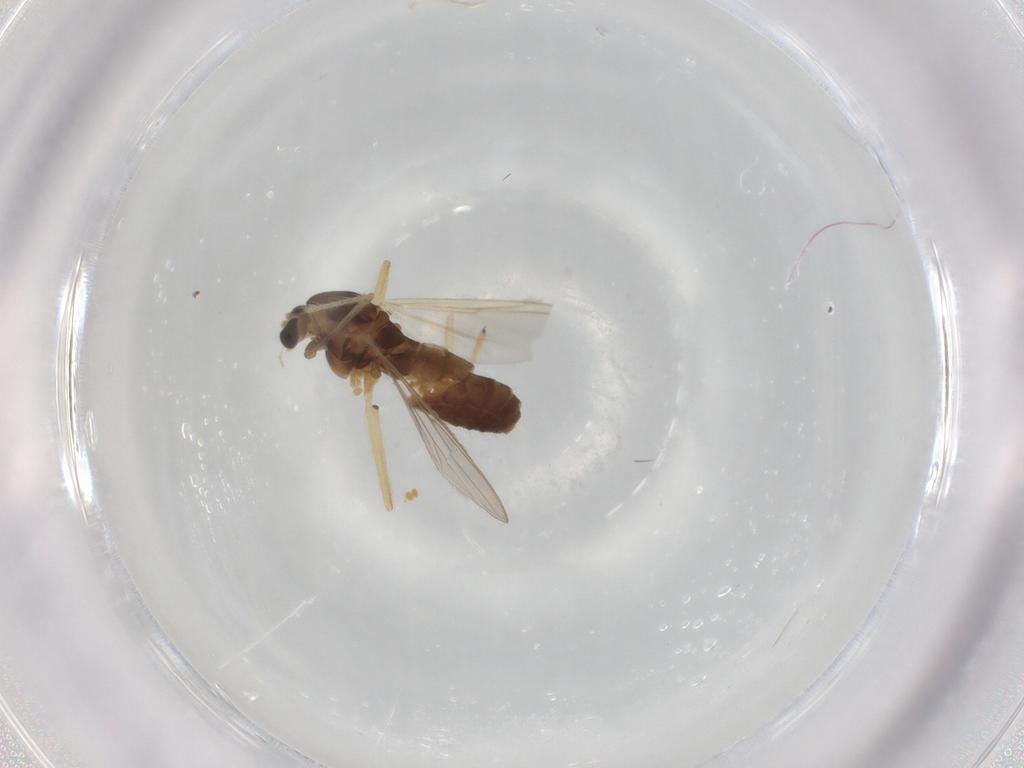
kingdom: Animalia
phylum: Arthropoda
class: Insecta
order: Diptera
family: Chironomidae
